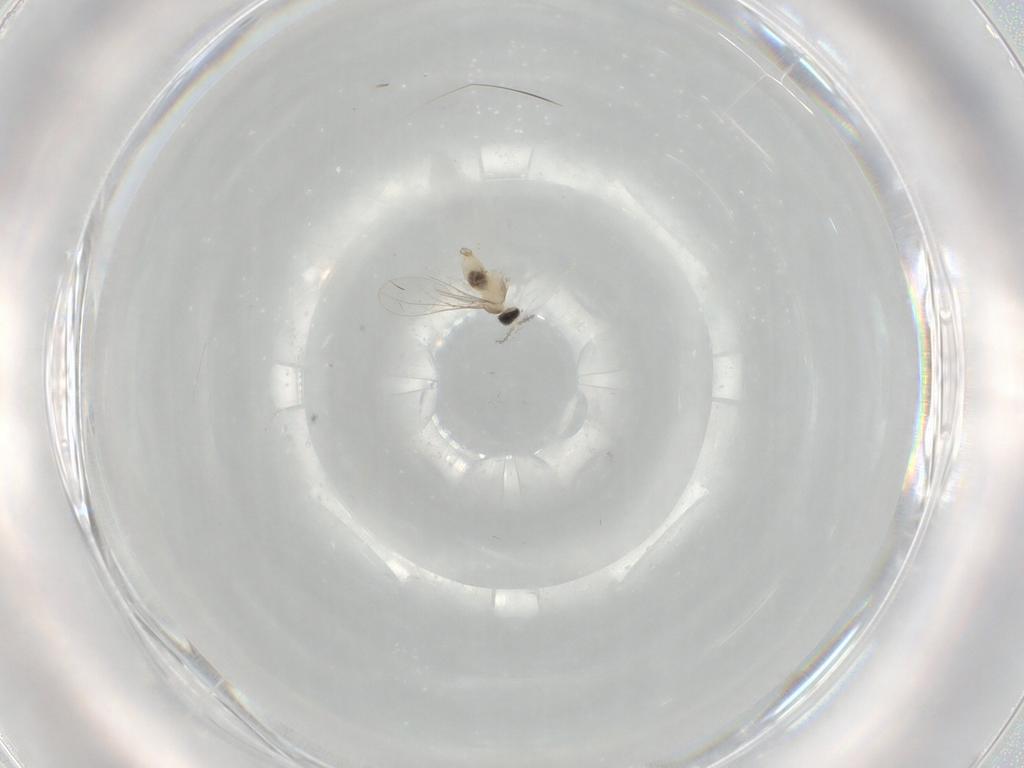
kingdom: Animalia
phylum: Arthropoda
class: Insecta
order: Diptera
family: Cecidomyiidae
